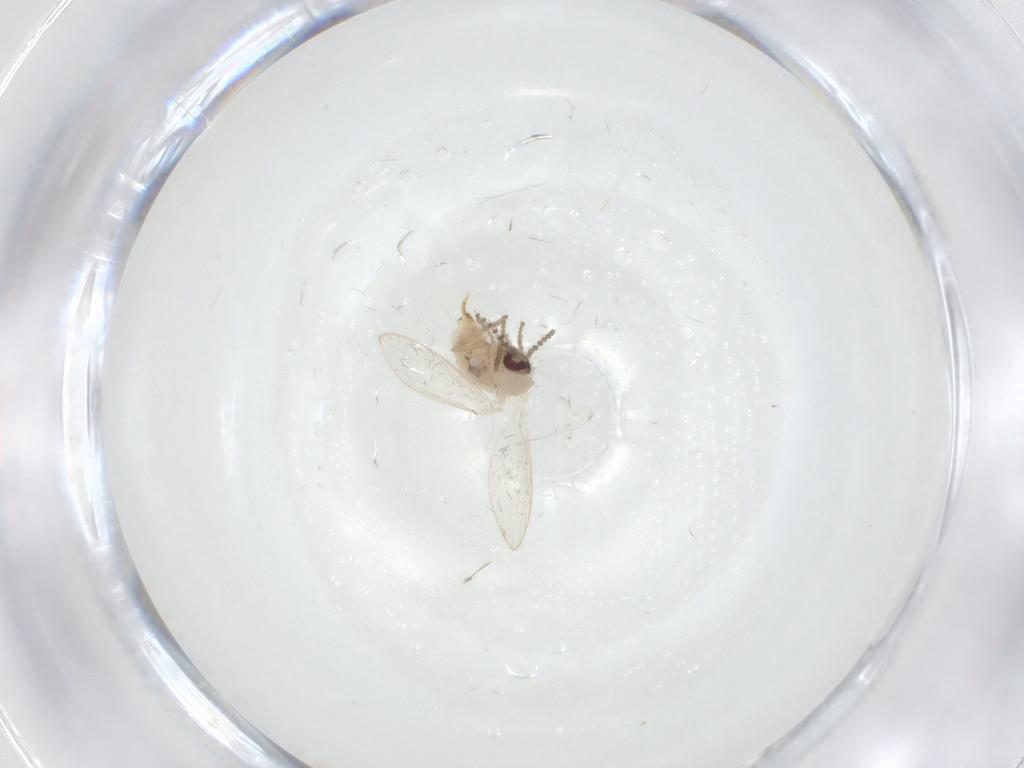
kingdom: Animalia
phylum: Arthropoda
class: Insecta
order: Diptera
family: Psychodidae
